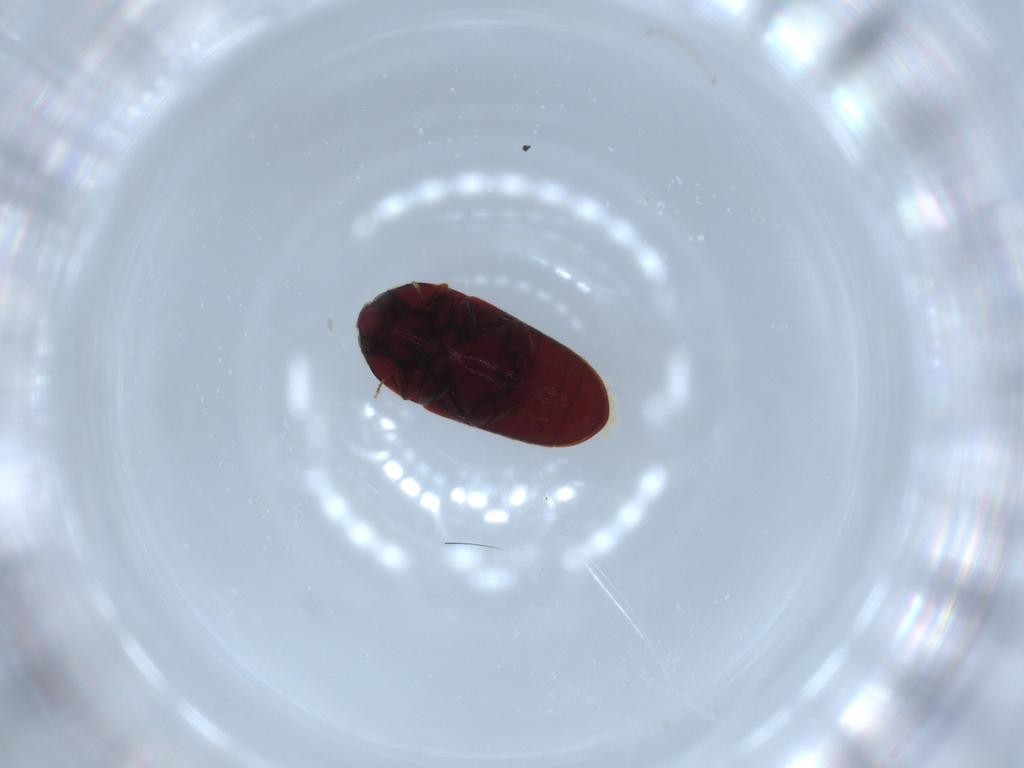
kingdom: Animalia
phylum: Arthropoda
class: Insecta
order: Coleoptera
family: Throscidae
